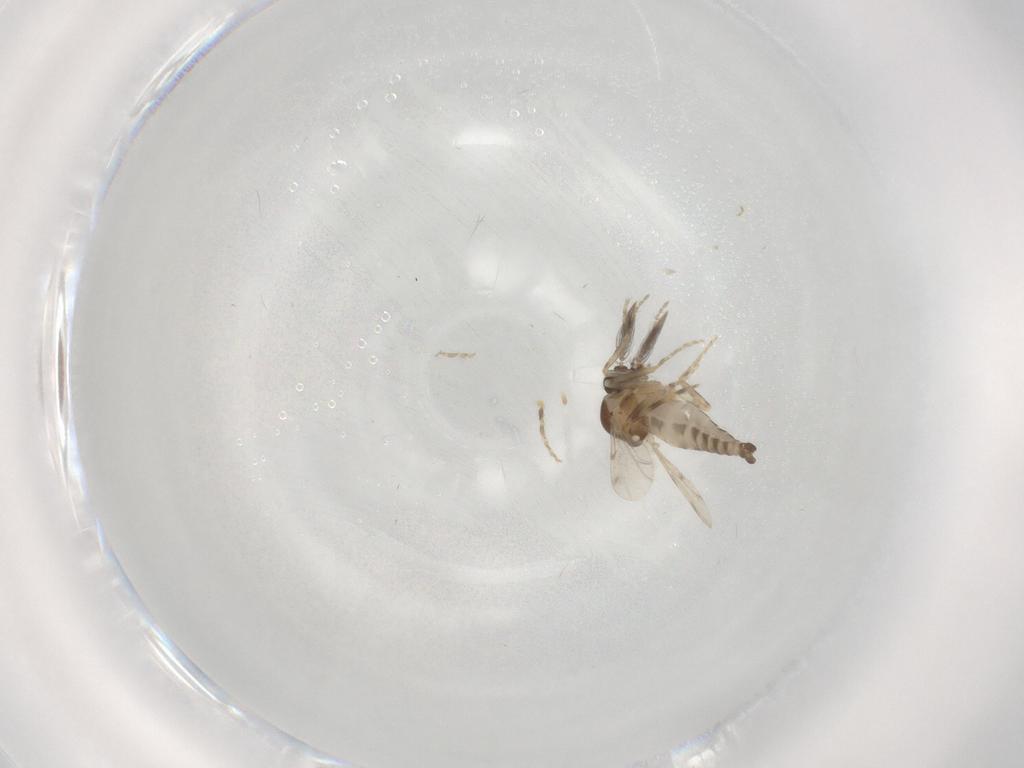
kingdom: Animalia
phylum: Arthropoda
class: Insecta
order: Diptera
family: Ceratopogonidae
